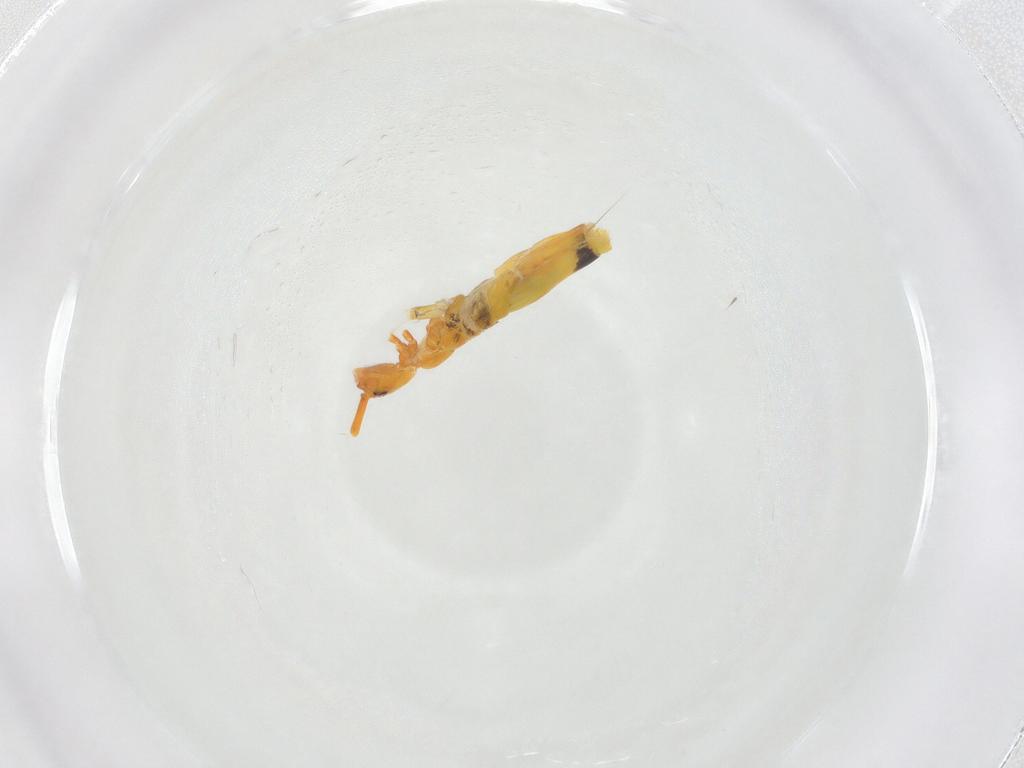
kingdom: Animalia
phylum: Arthropoda
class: Collembola
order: Entomobryomorpha
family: Entomobryidae
